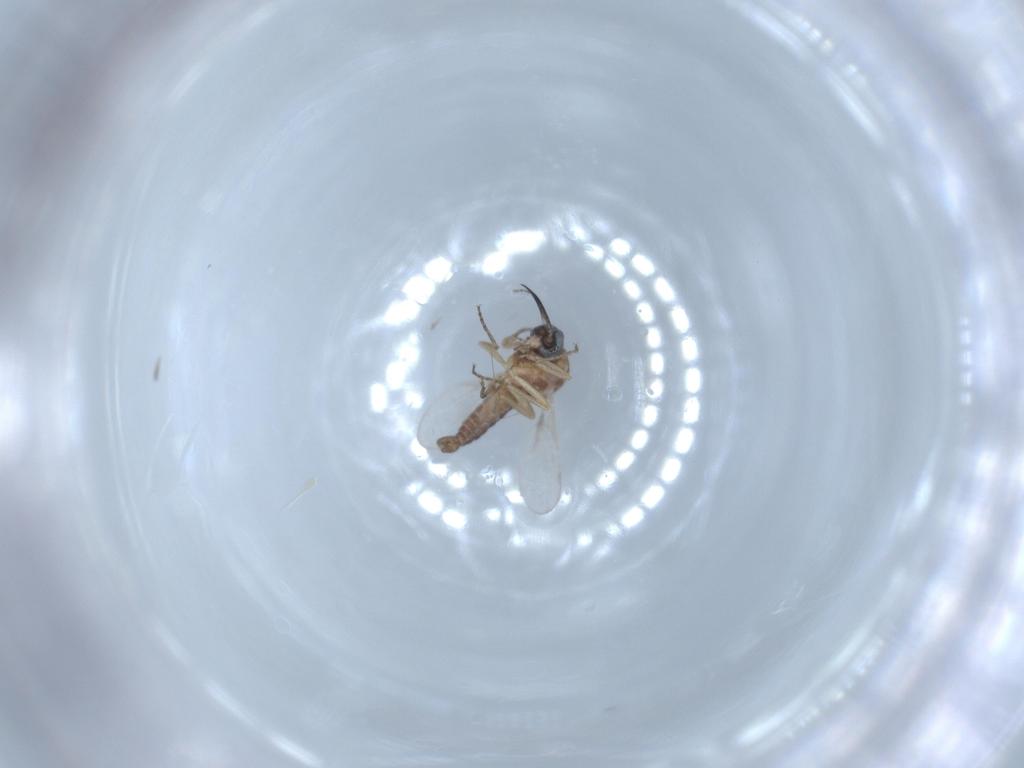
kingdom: Animalia
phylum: Arthropoda
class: Insecta
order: Diptera
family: Ceratopogonidae
